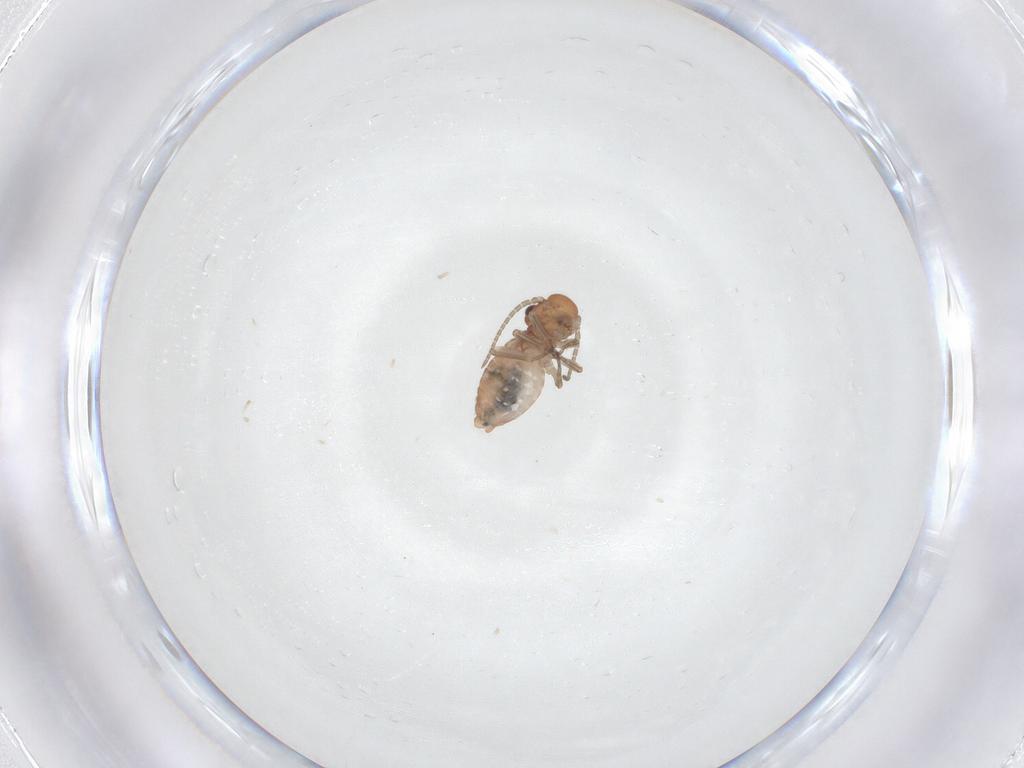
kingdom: Animalia
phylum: Arthropoda
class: Insecta
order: Psocodea
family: Caeciliusidae
